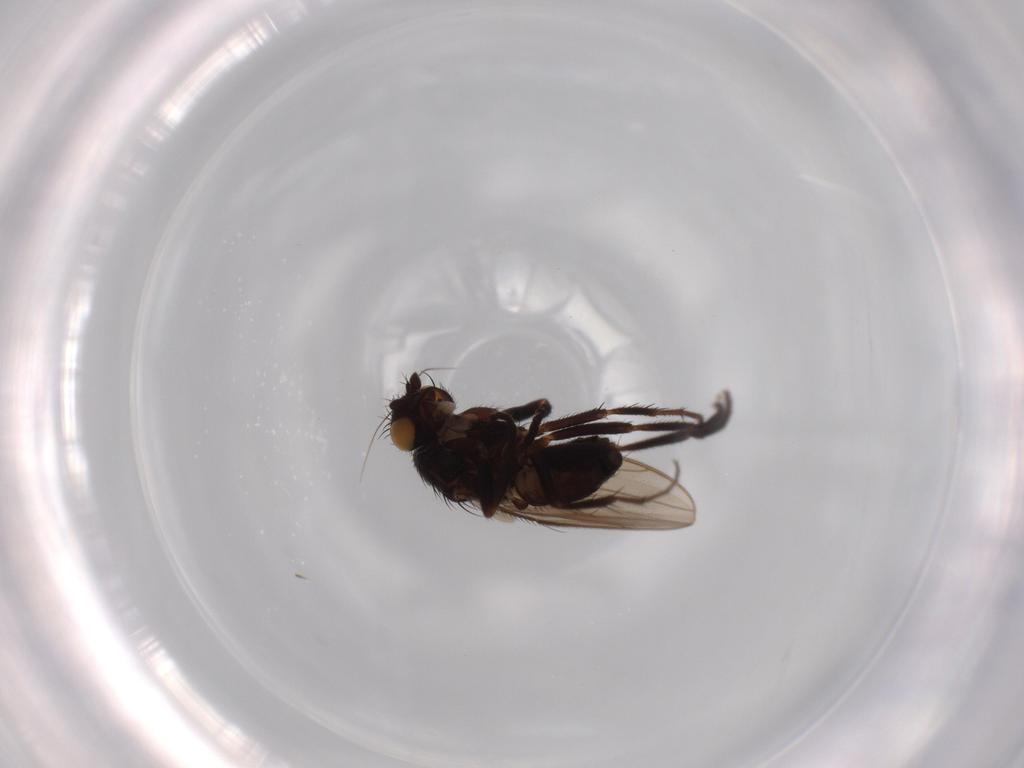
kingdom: Animalia
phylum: Arthropoda
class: Insecta
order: Diptera
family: Sphaeroceridae
